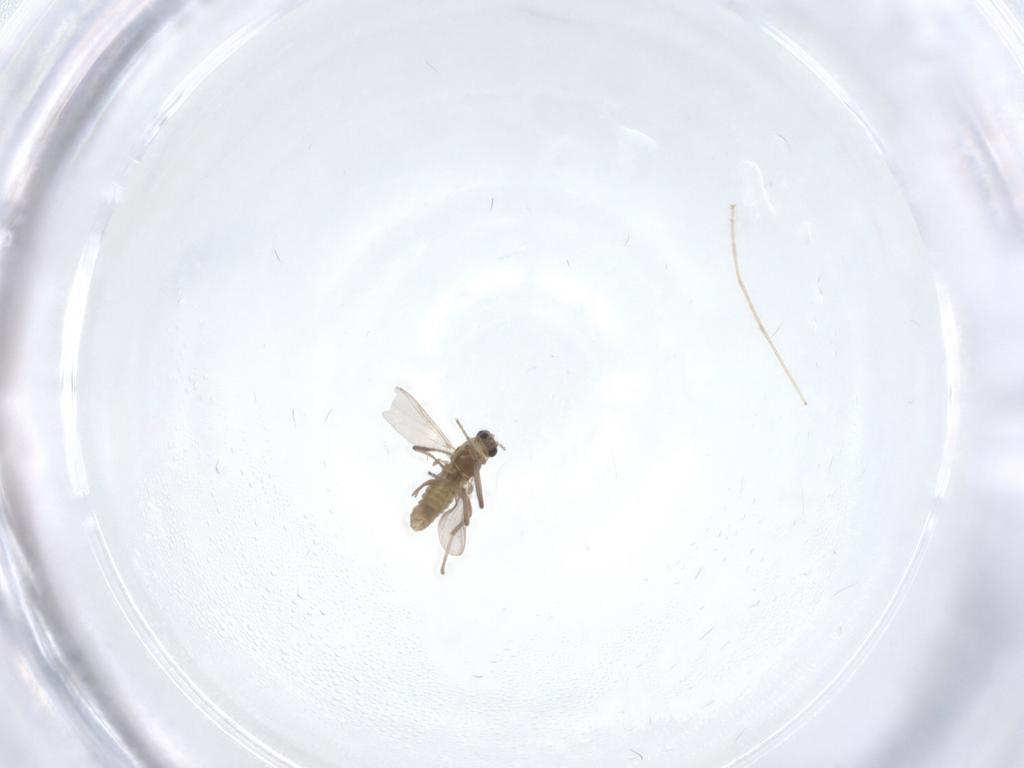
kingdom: Animalia
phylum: Arthropoda
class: Insecta
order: Diptera
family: Chironomidae
